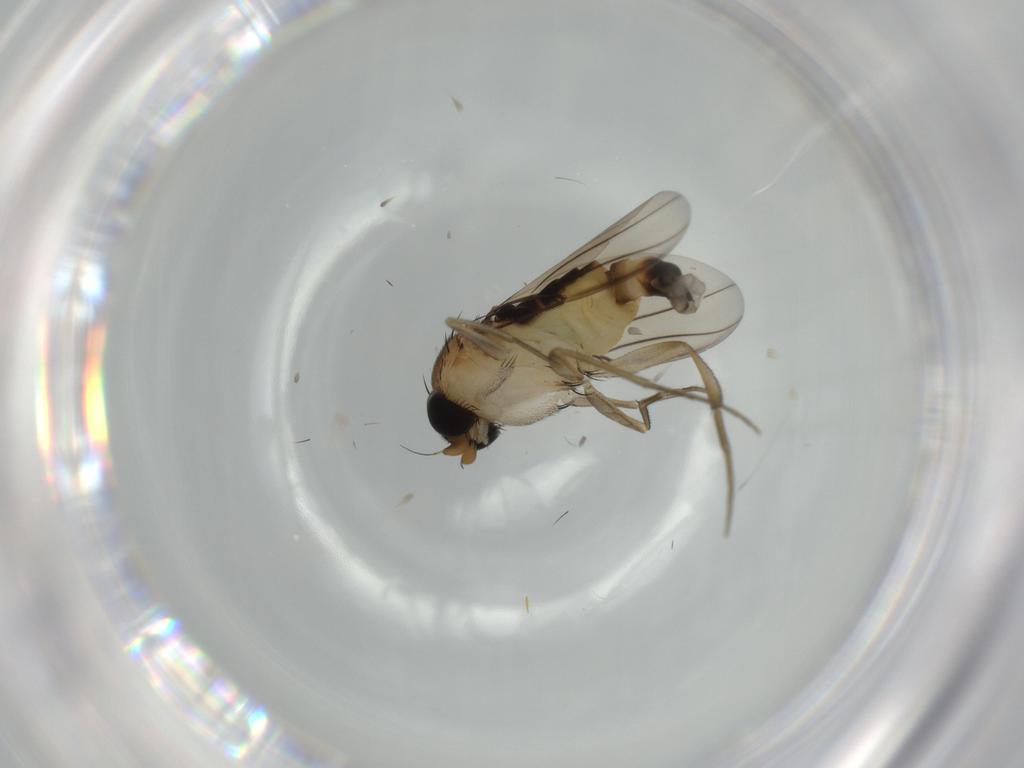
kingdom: Animalia
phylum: Arthropoda
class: Insecta
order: Diptera
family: Phoridae
